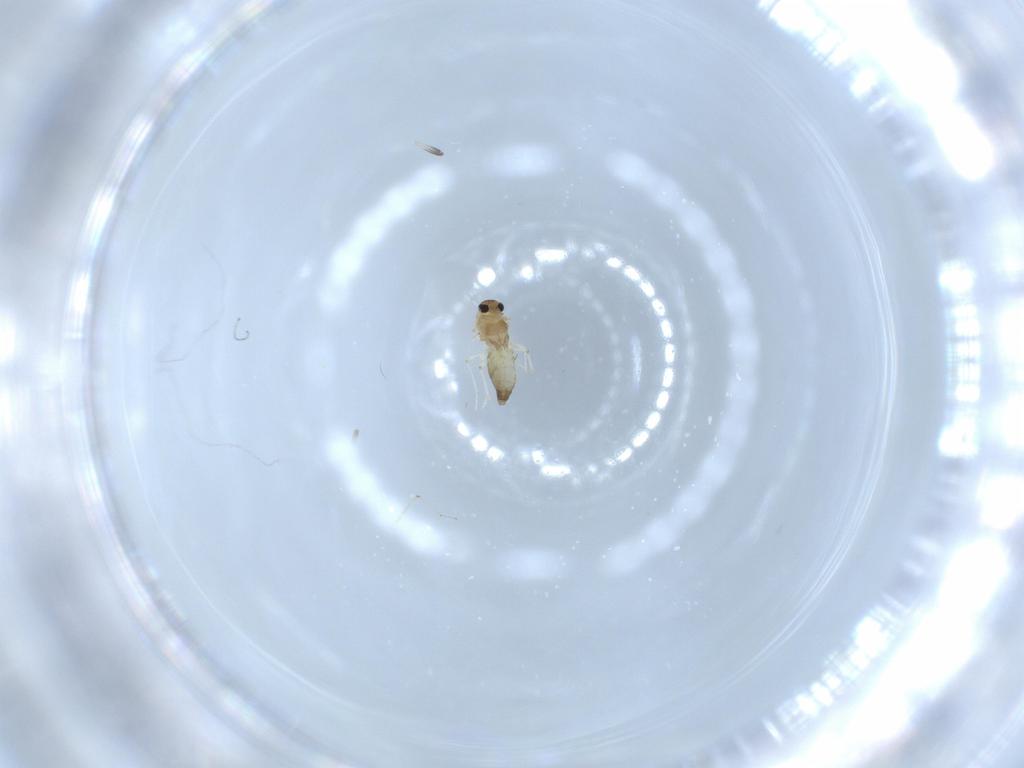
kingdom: Animalia
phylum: Arthropoda
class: Insecta
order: Diptera
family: Chironomidae
